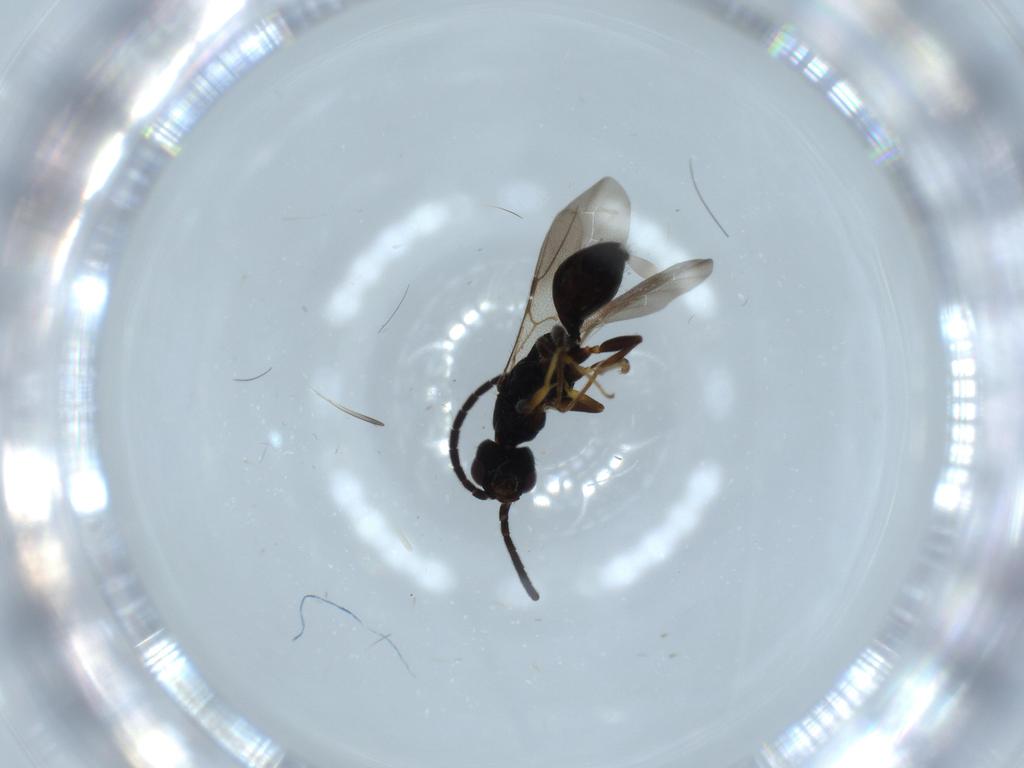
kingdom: Animalia
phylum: Arthropoda
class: Insecta
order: Hymenoptera
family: Bethylidae
